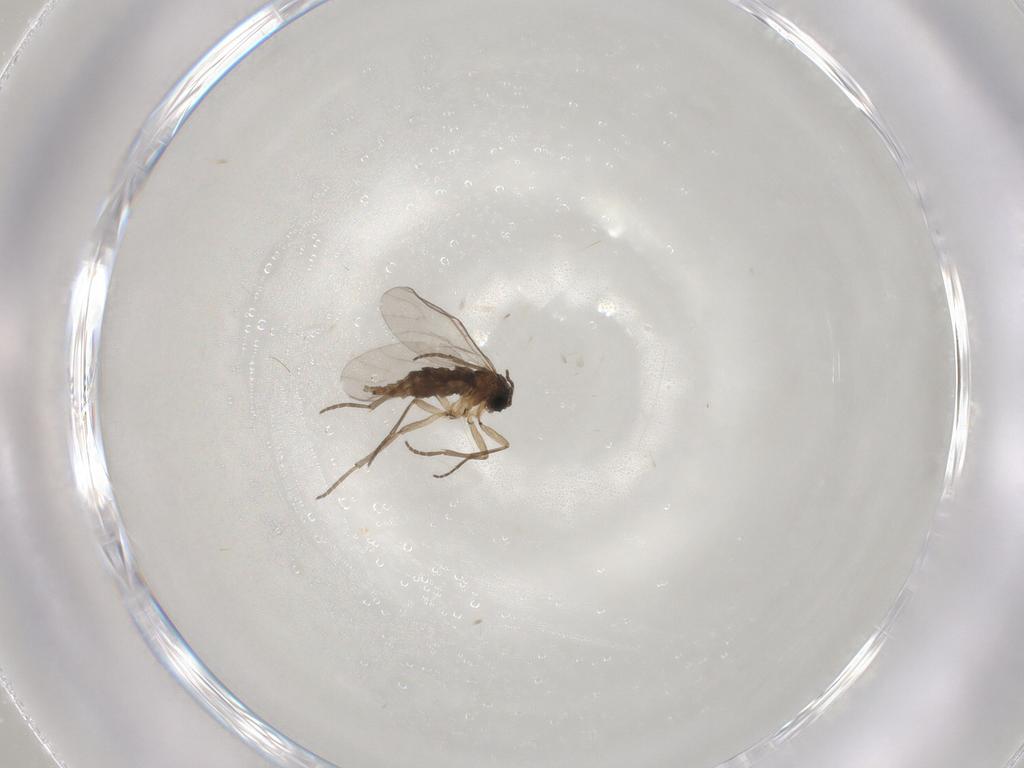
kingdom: Animalia
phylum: Arthropoda
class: Insecta
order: Diptera
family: Sciaridae
